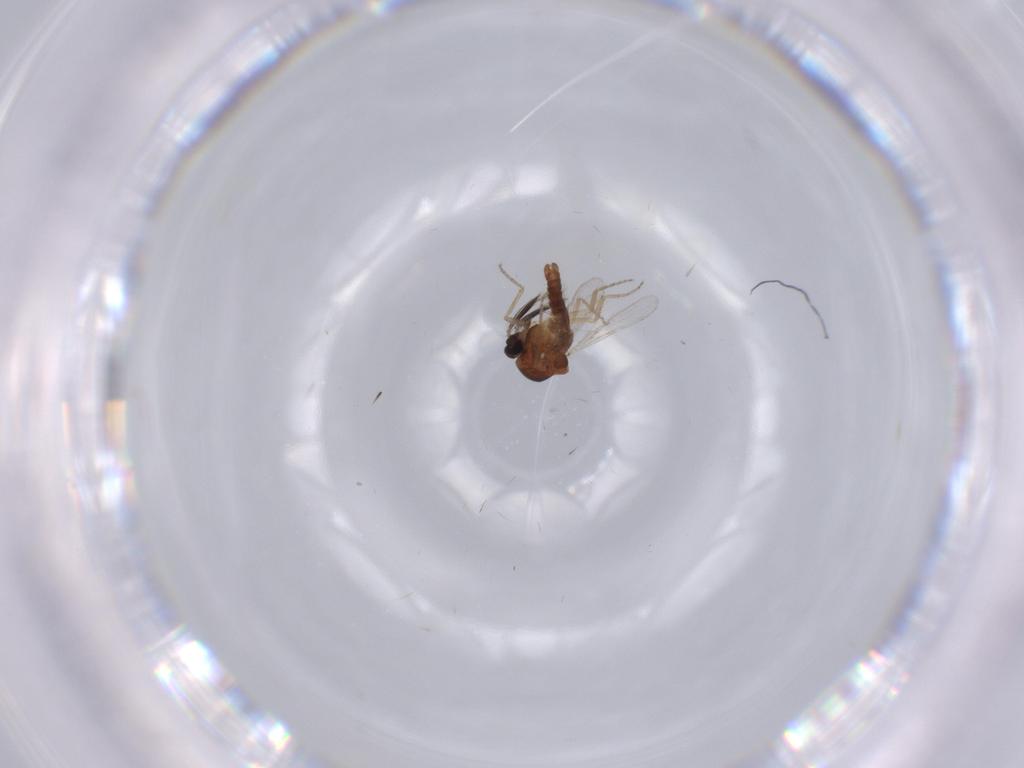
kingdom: Animalia
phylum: Arthropoda
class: Insecta
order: Diptera
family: Ceratopogonidae
